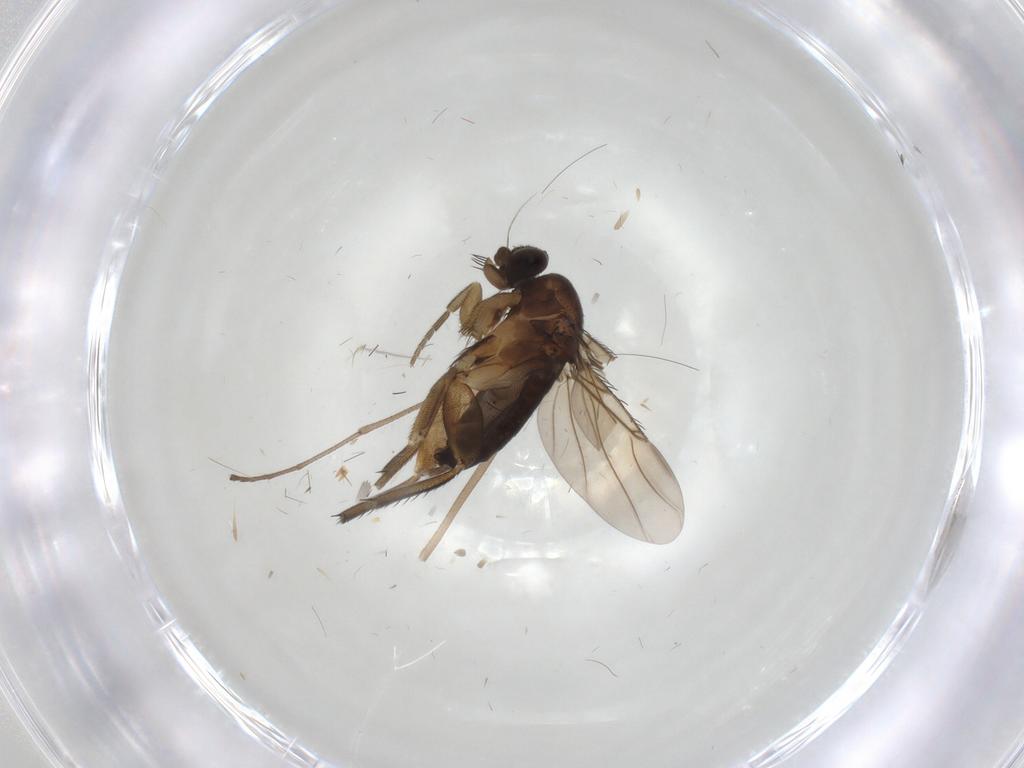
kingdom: Animalia
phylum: Arthropoda
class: Insecta
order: Diptera
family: Limoniidae
